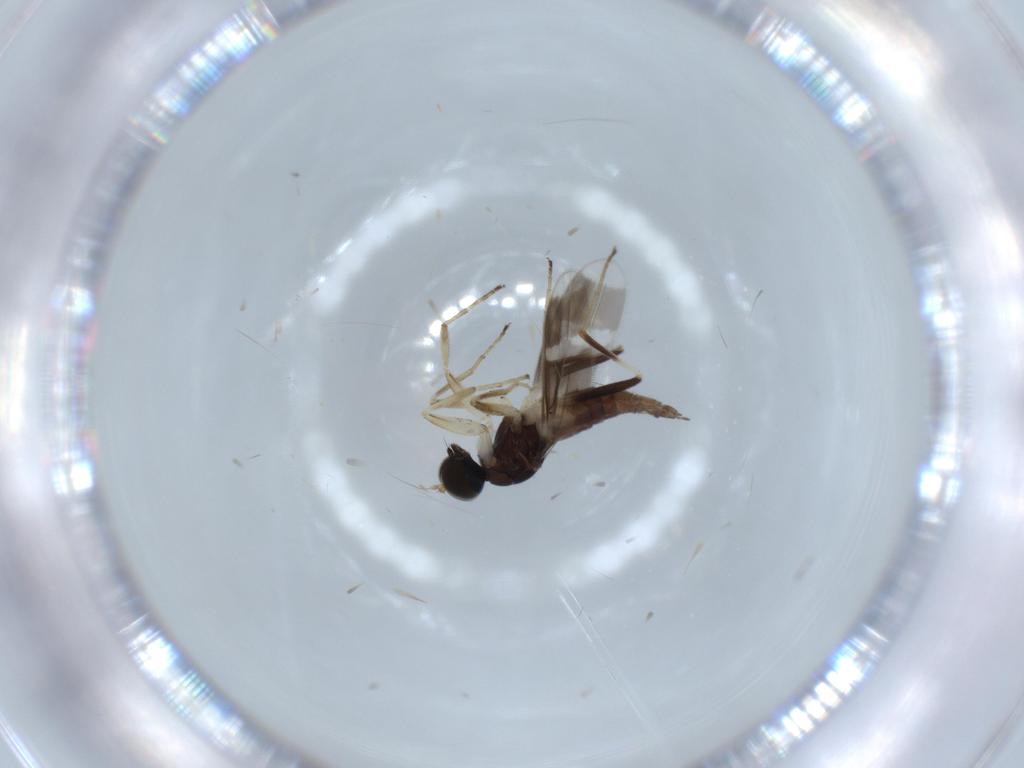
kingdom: Animalia
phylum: Arthropoda
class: Insecta
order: Diptera
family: Hybotidae
